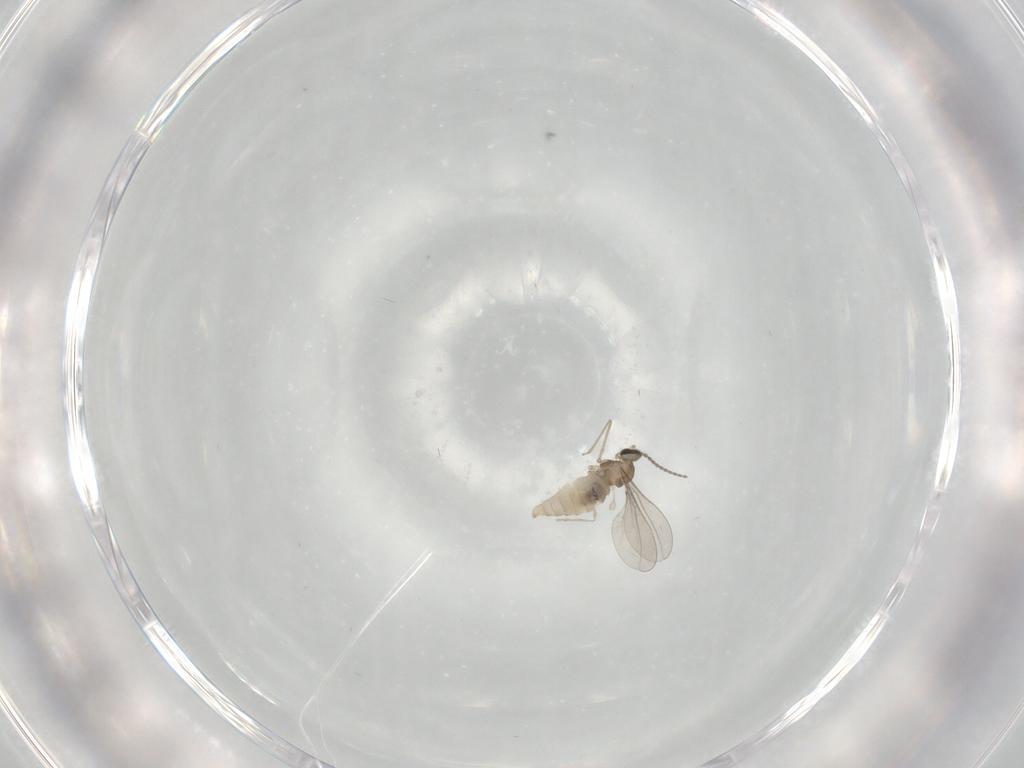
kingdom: Animalia
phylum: Arthropoda
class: Insecta
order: Diptera
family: Cecidomyiidae
